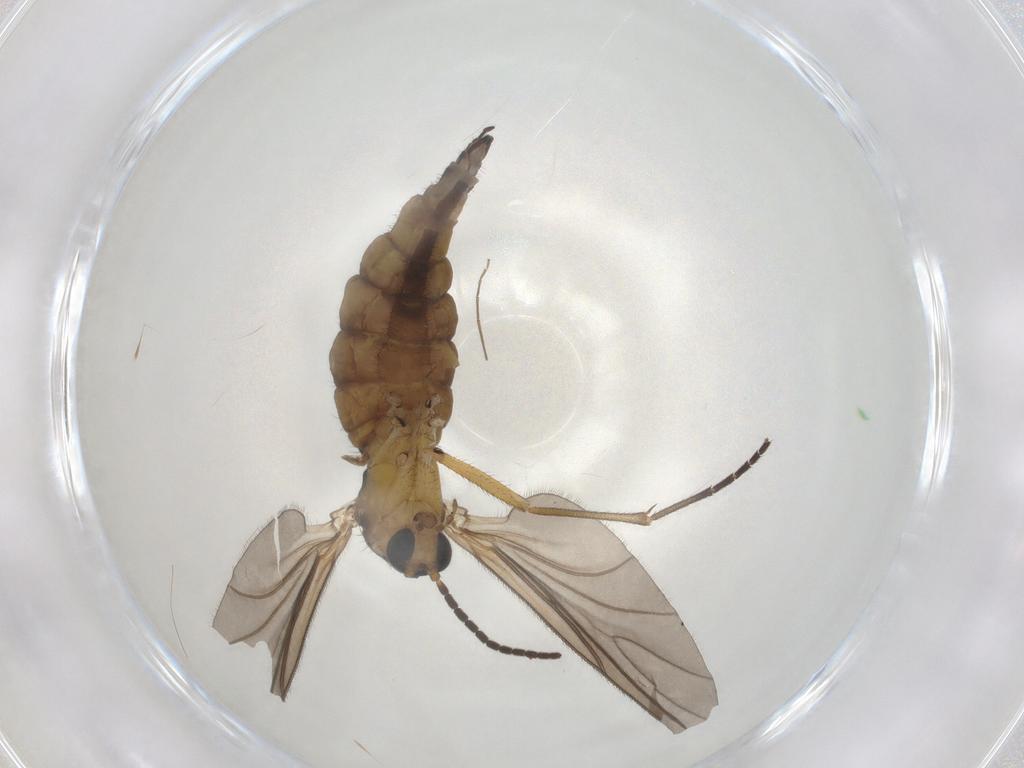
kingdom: Animalia
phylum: Arthropoda
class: Insecta
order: Diptera
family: Sciaridae
